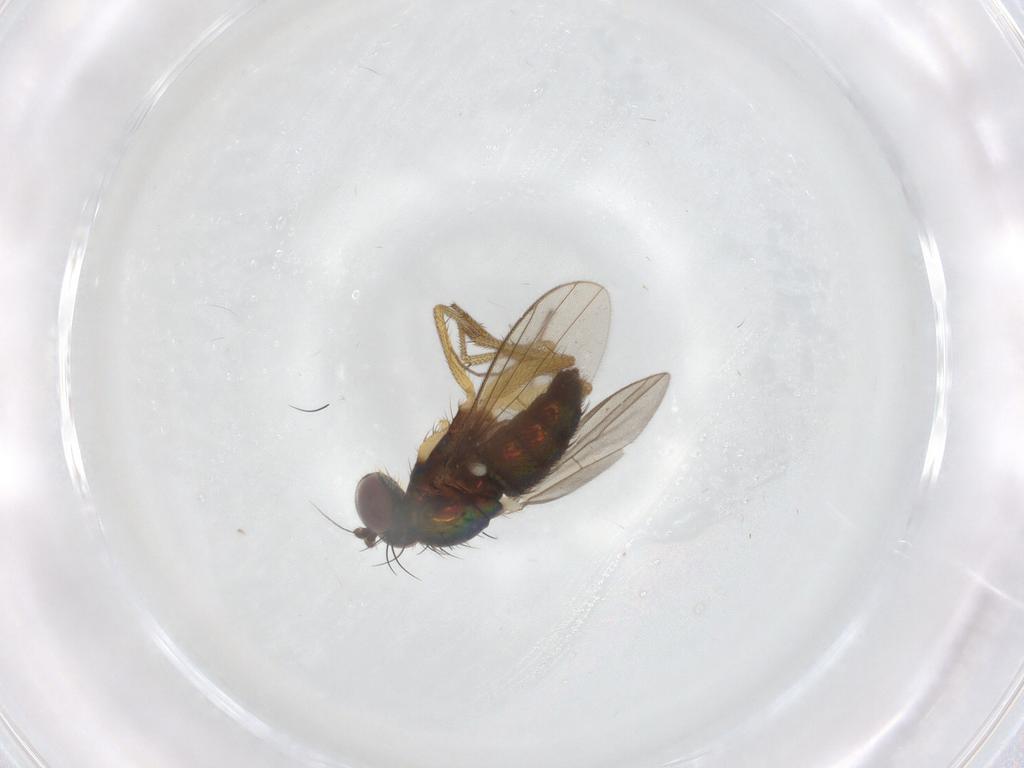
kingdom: Animalia
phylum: Arthropoda
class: Insecta
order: Diptera
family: Dolichopodidae
